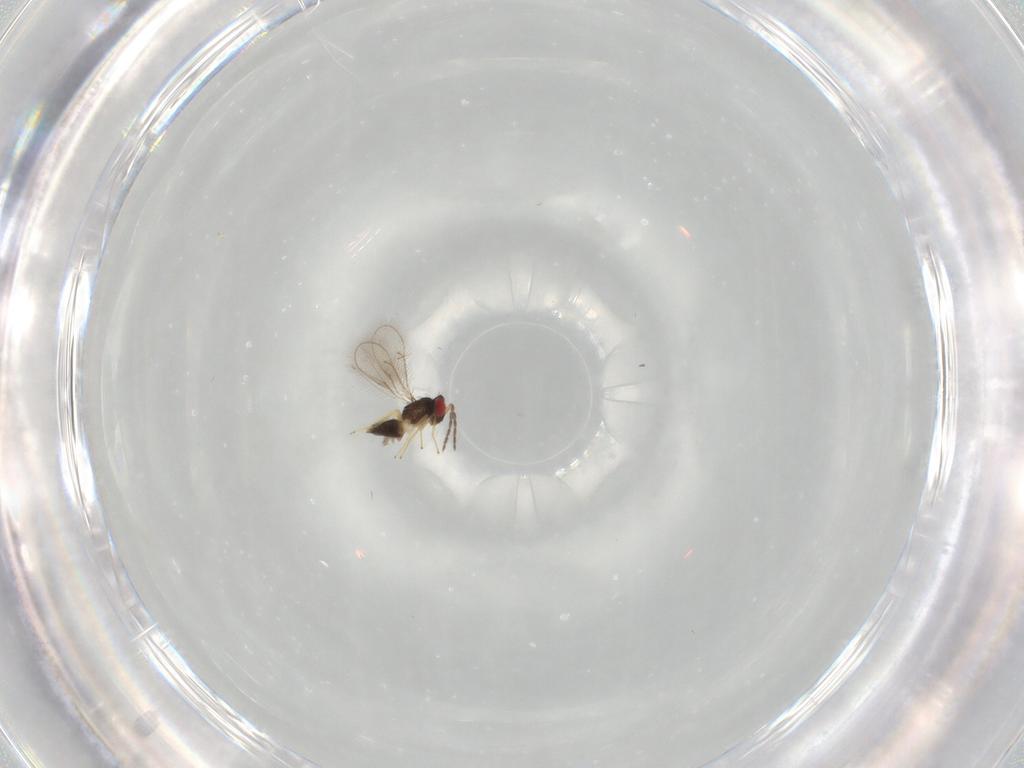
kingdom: Animalia
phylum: Arthropoda
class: Insecta
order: Hymenoptera
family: Eulophidae
